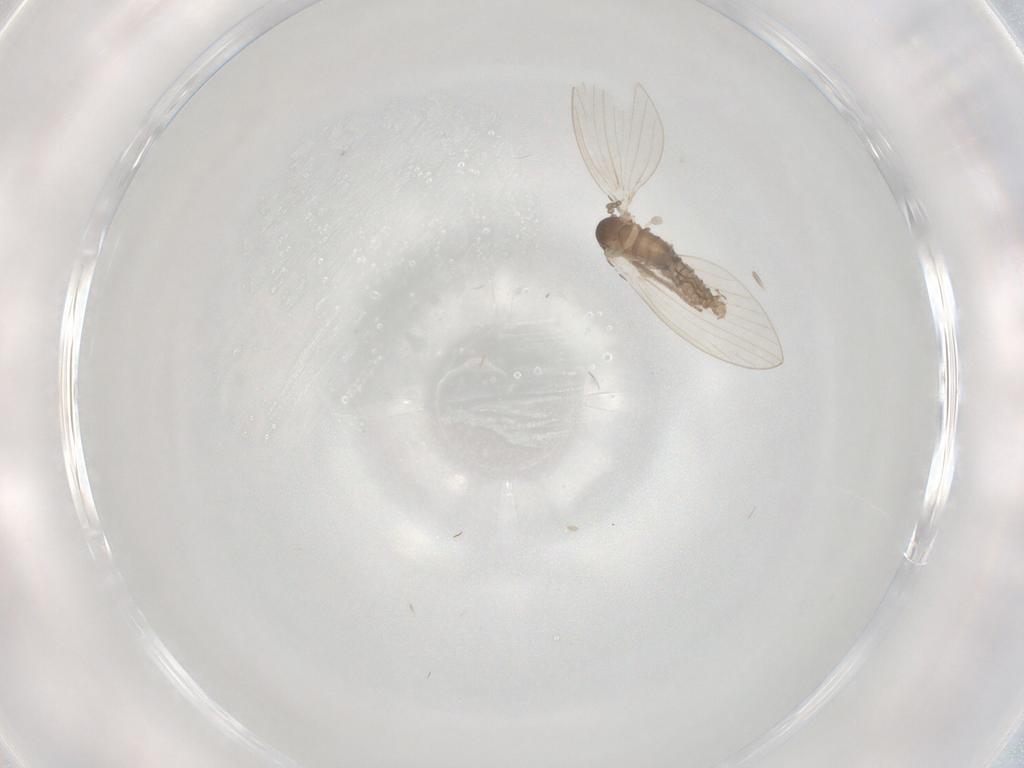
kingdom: Animalia
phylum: Arthropoda
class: Insecta
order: Diptera
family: Psychodidae
